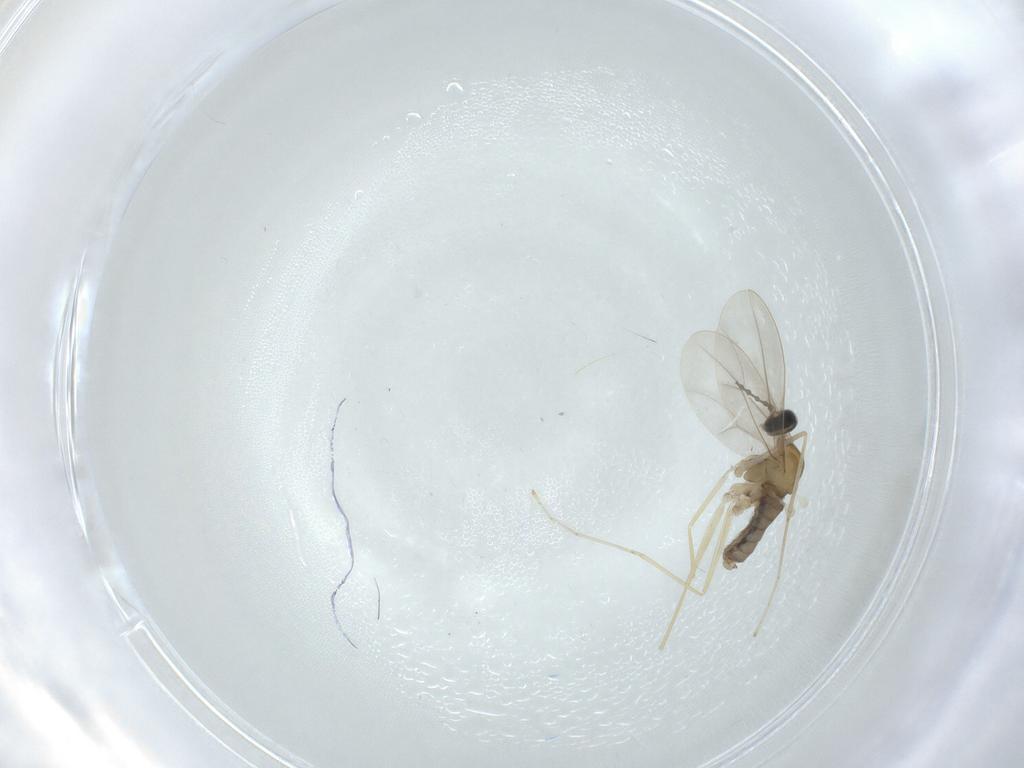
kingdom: Animalia
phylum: Arthropoda
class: Insecta
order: Diptera
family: Cecidomyiidae
